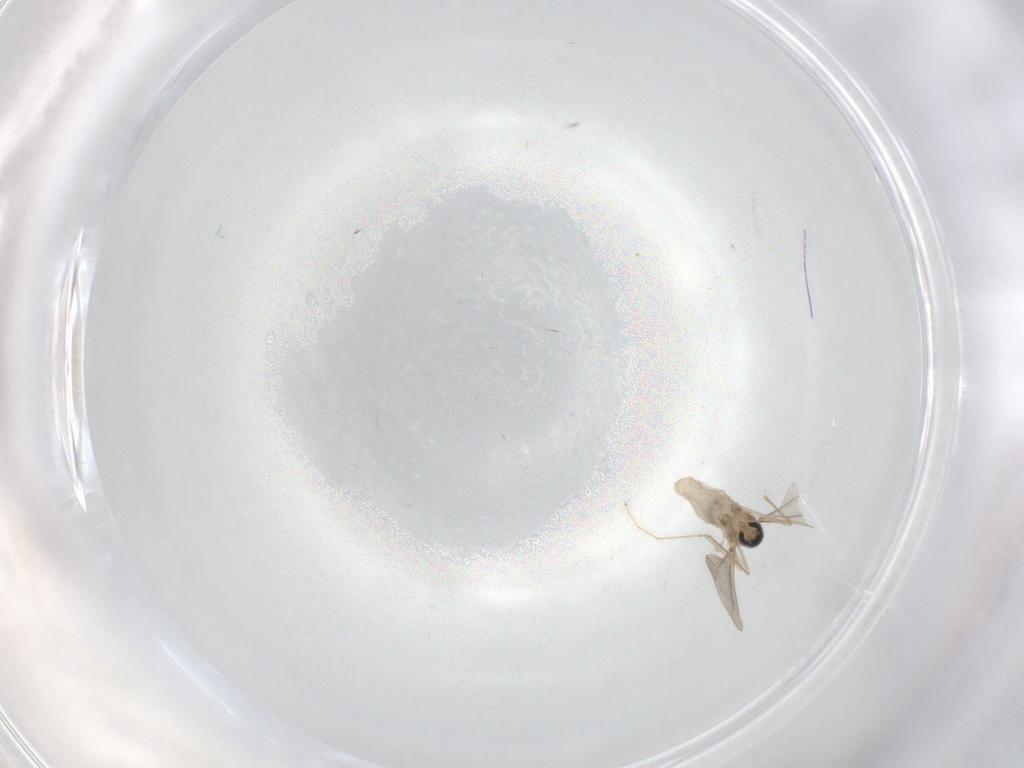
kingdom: Animalia
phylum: Arthropoda
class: Insecta
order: Diptera
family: Cecidomyiidae
